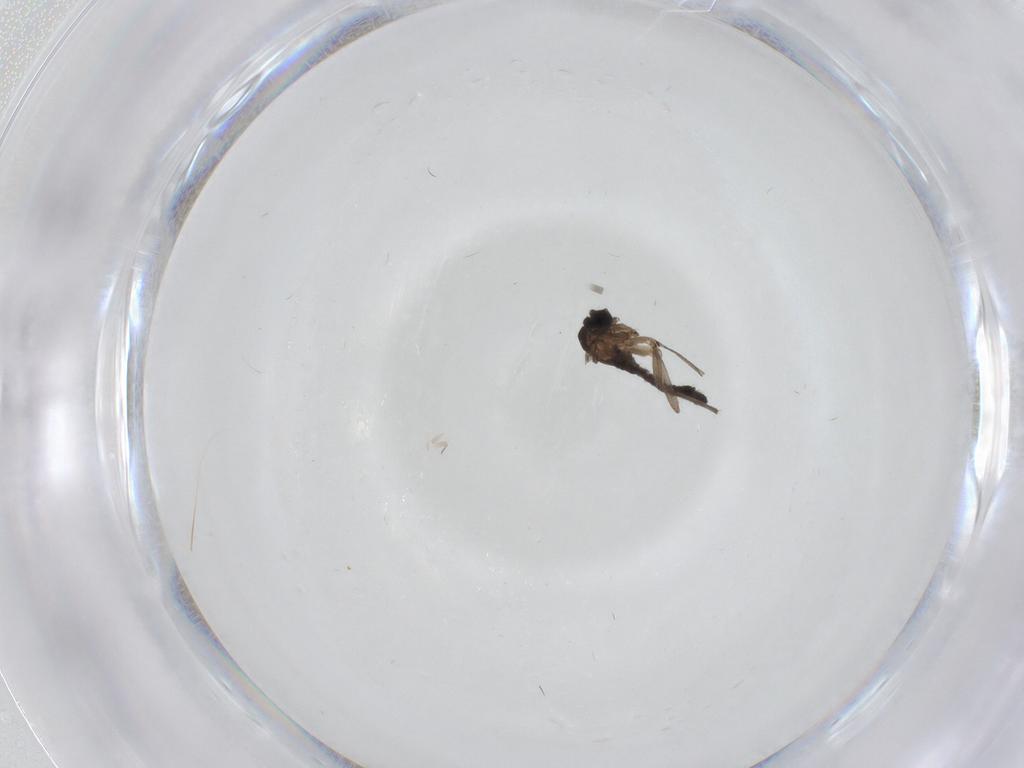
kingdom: Animalia
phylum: Arthropoda
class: Insecta
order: Diptera
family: Sciaridae
